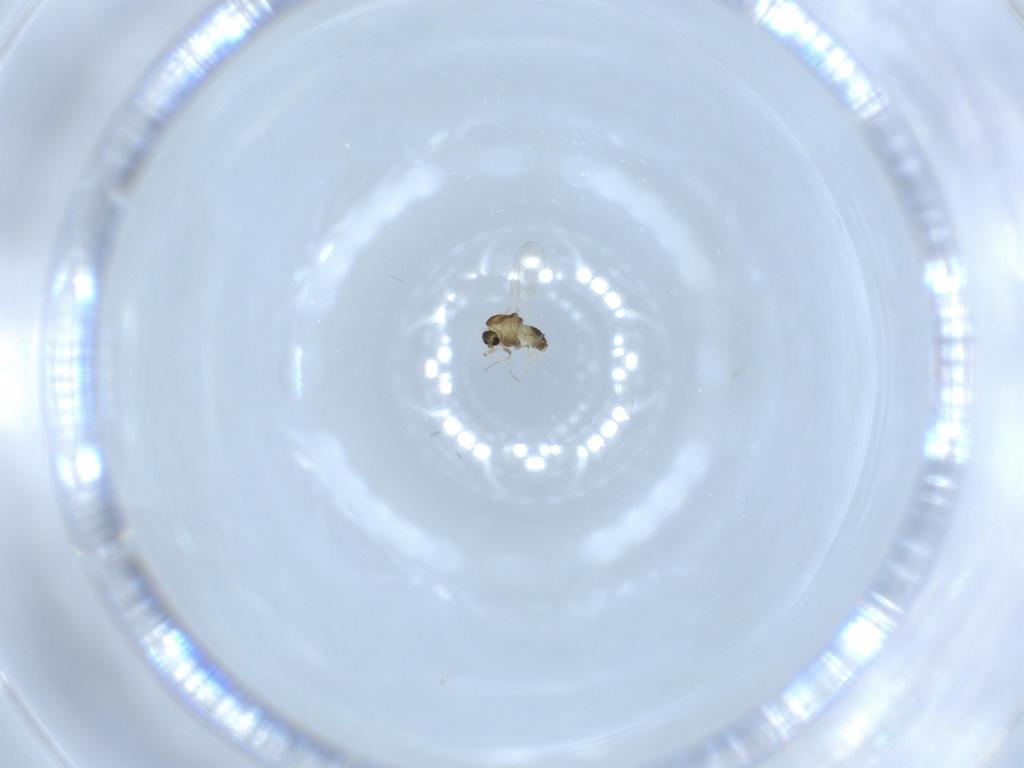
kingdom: Animalia
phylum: Arthropoda
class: Insecta
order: Diptera
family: Chironomidae
